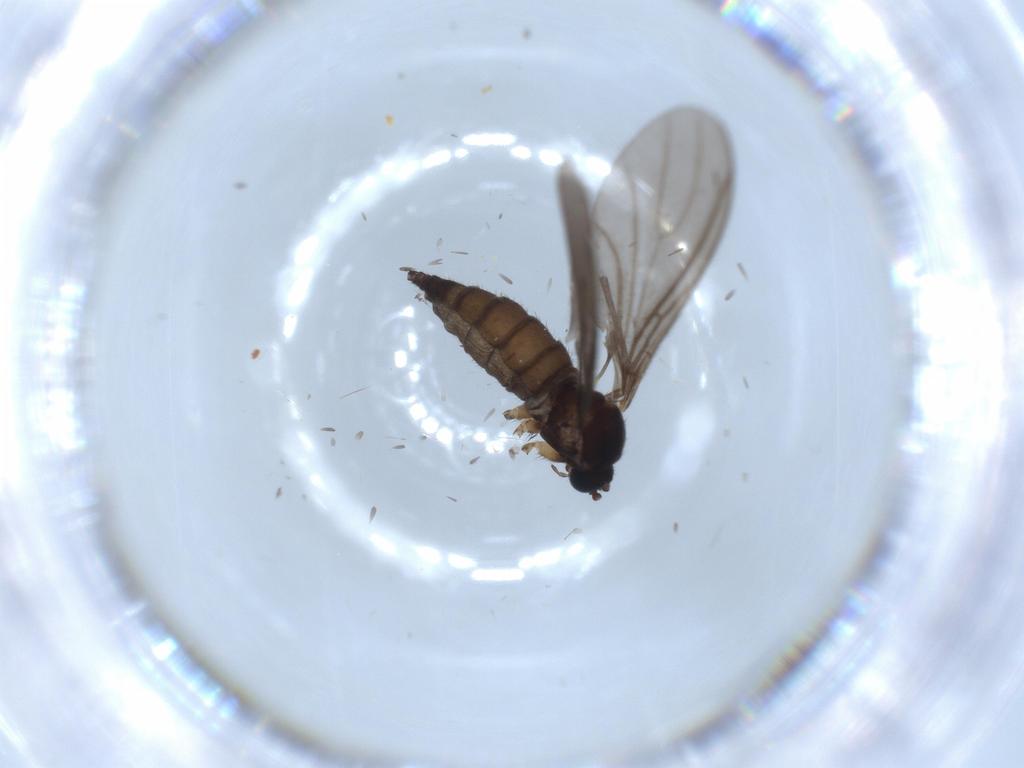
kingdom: Animalia
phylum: Arthropoda
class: Insecta
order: Diptera
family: Sciaridae
